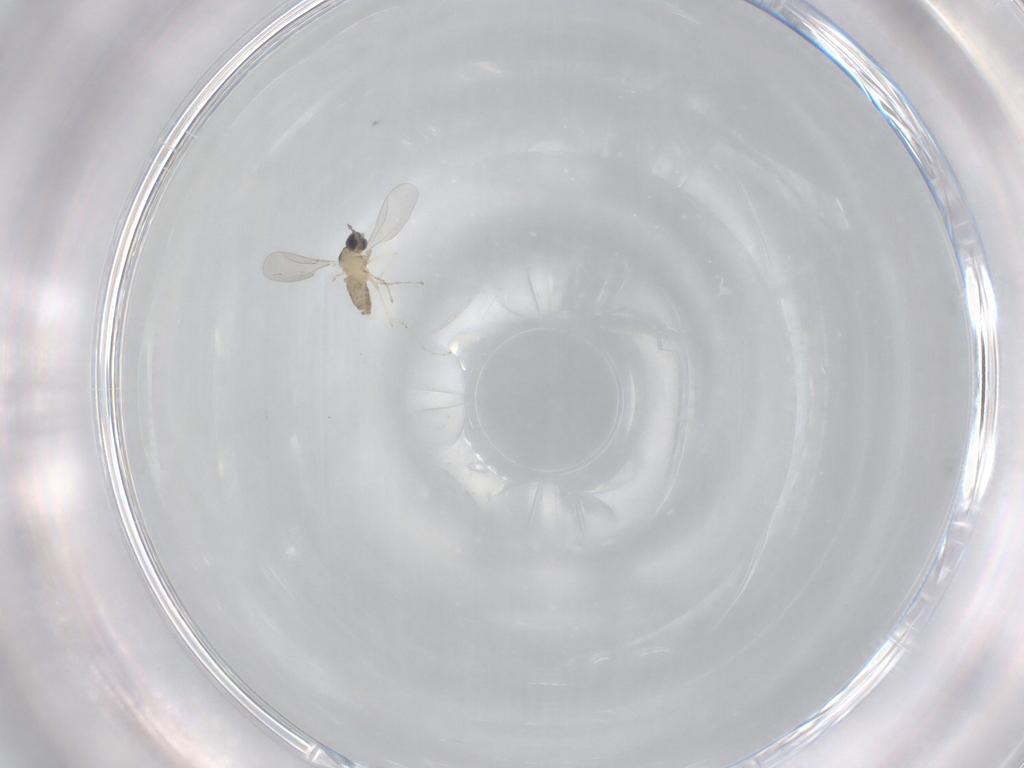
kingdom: Animalia
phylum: Arthropoda
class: Insecta
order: Diptera
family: Cecidomyiidae
